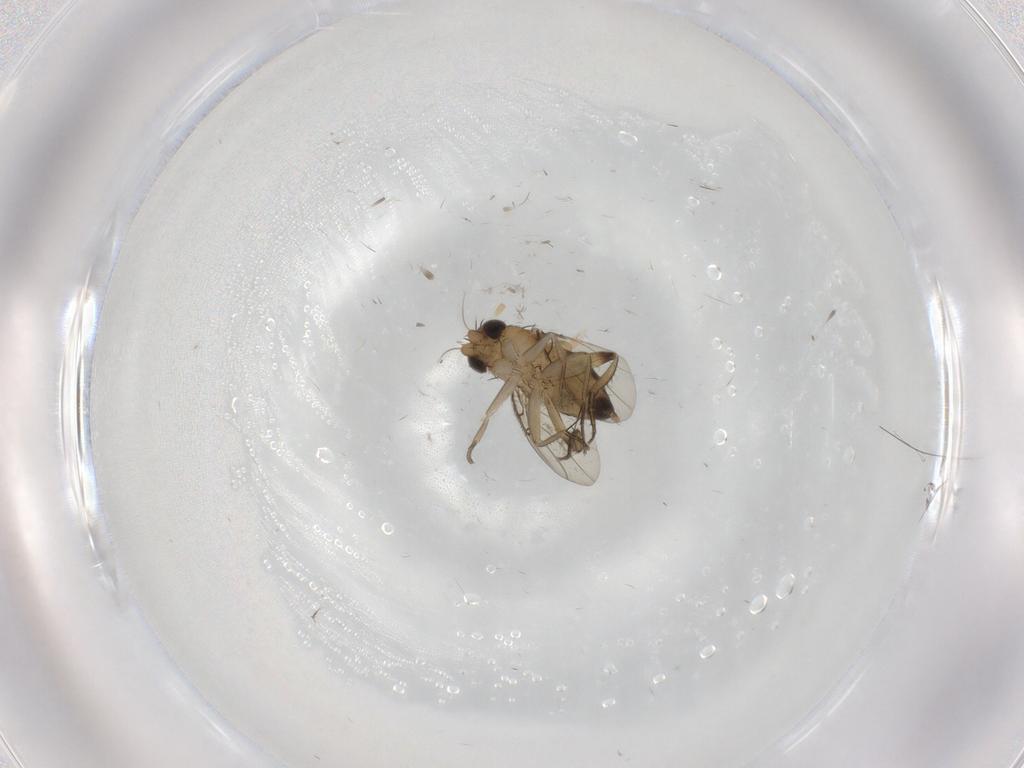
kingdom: Animalia
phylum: Arthropoda
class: Insecta
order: Diptera
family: Phoridae
